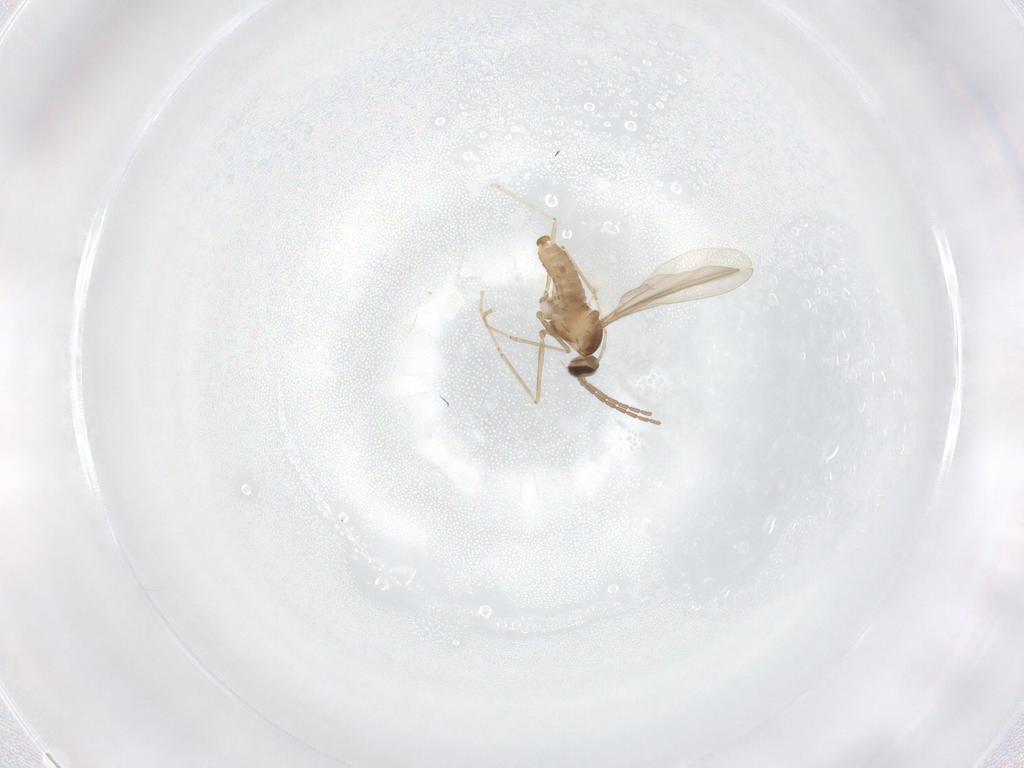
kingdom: Animalia
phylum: Arthropoda
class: Insecta
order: Diptera
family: Cecidomyiidae
